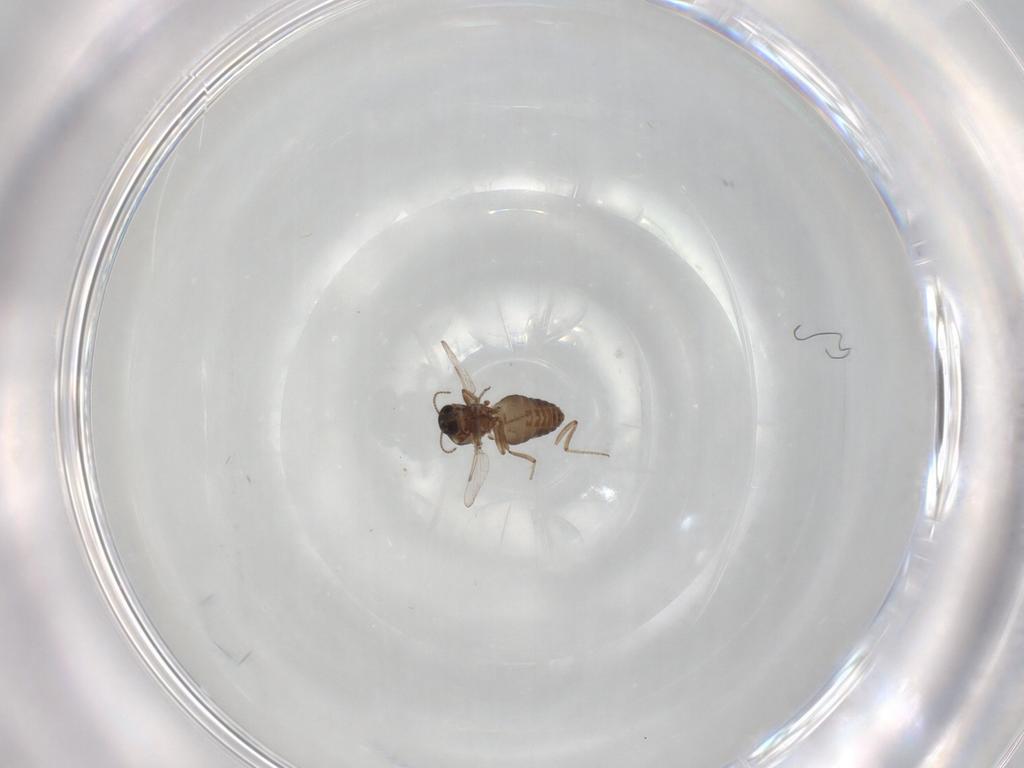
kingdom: Animalia
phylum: Arthropoda
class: Insecta
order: Diptera
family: Ceratopogonidae
